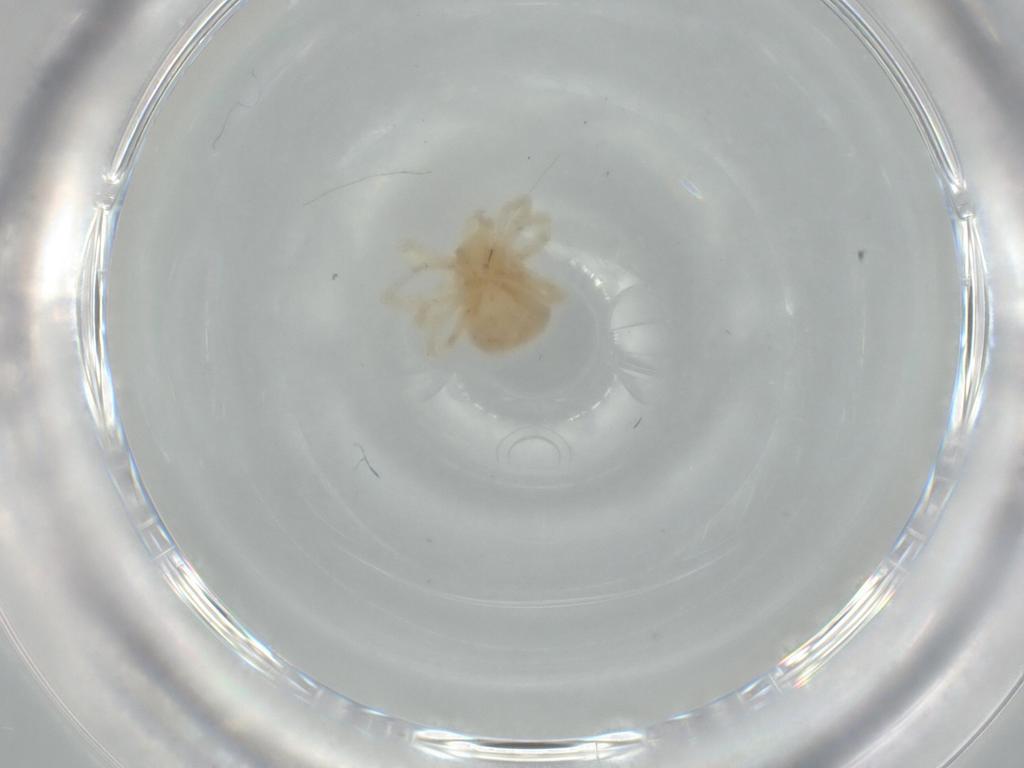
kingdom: Animalia
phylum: Arthropoda
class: Arachnida
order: Trombidiformes
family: Anystidae
